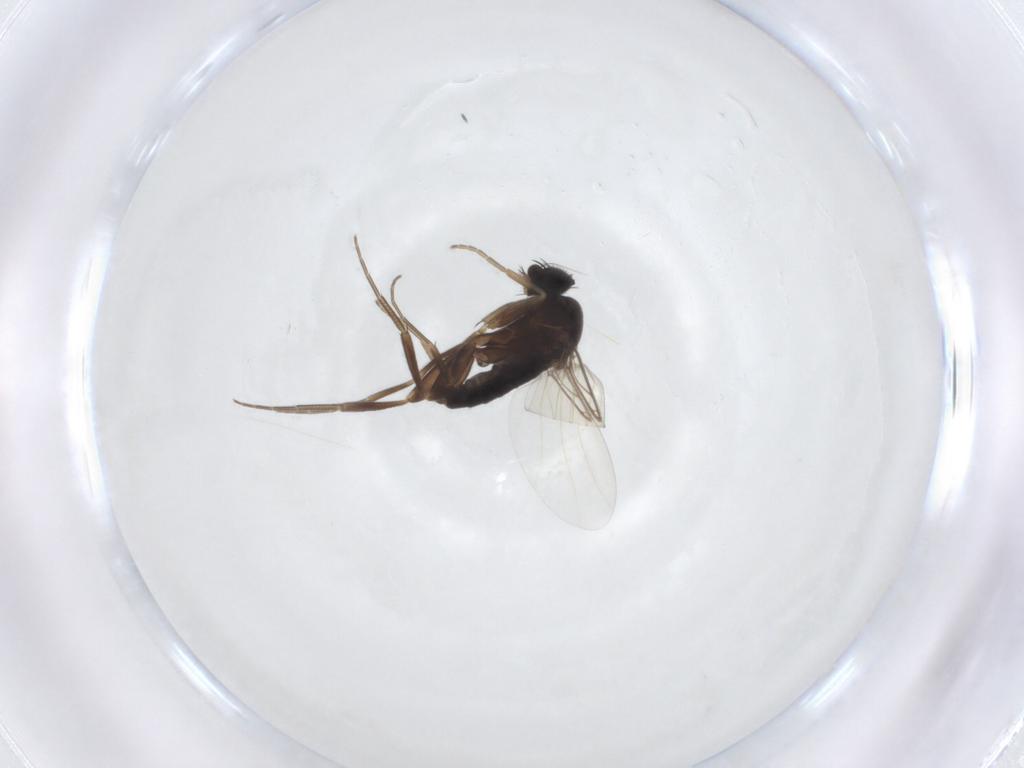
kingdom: Animalia
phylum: Arthropoda
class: Insecta
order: Diptera
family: Phoridae
